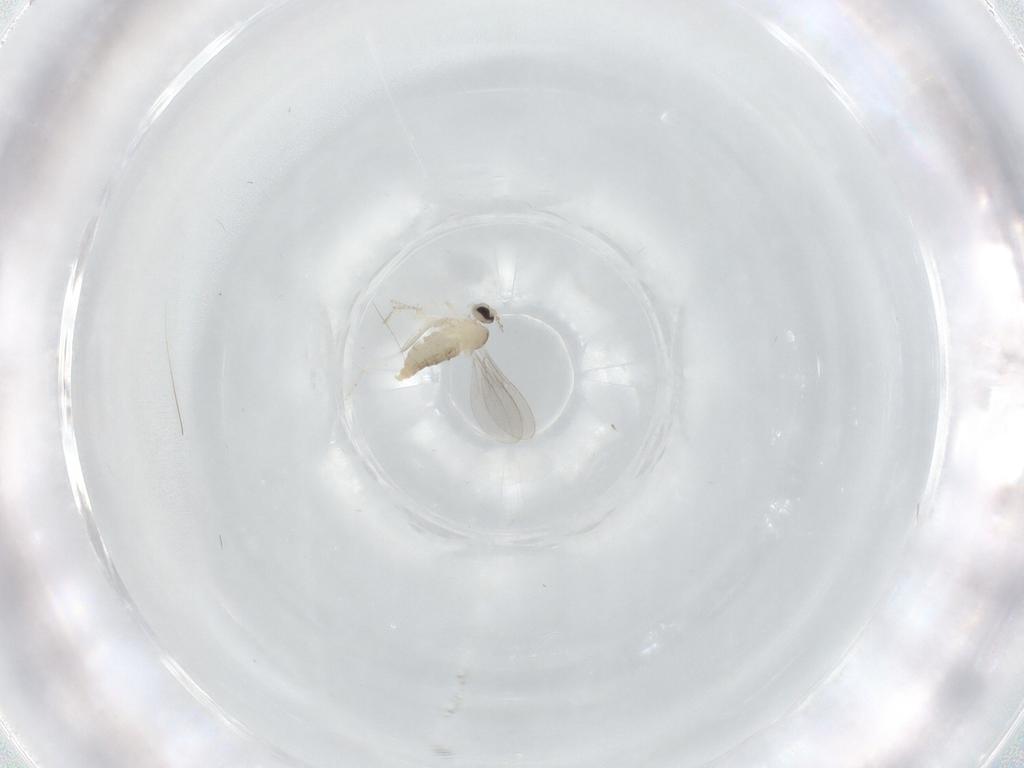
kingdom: Animalia
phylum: Arthropoda
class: Insecta
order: Diptera
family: Cecidomyiidae
